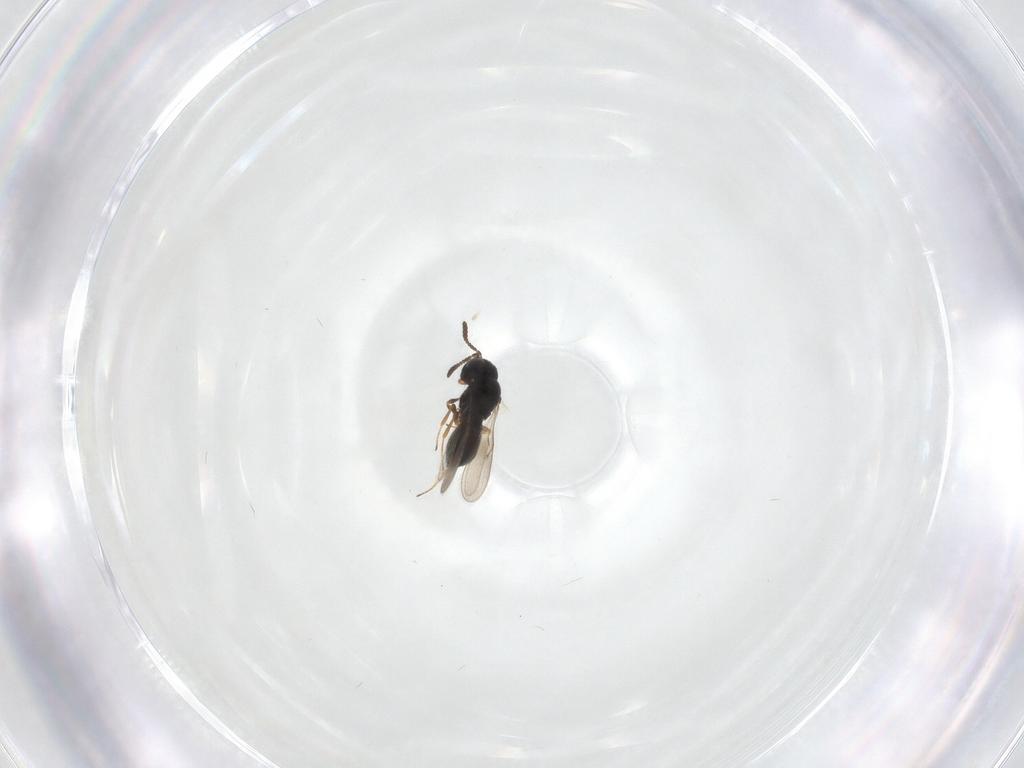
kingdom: Animalia
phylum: Arthropoda
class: Insecta
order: Hymenoptera
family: Scelionidae
